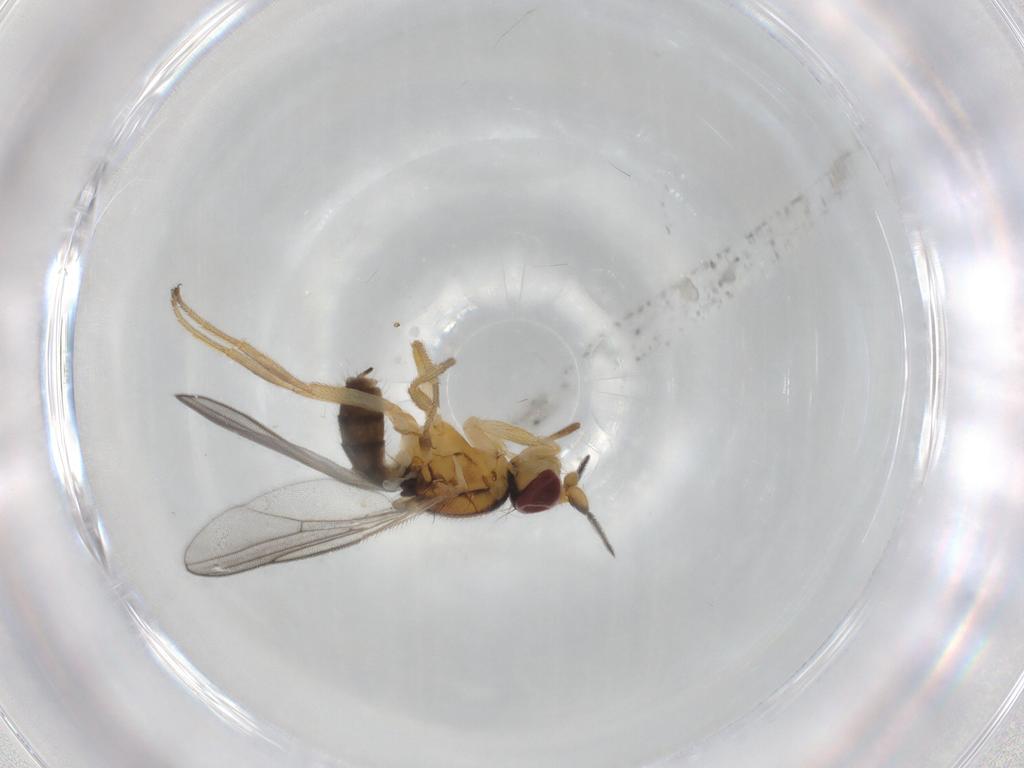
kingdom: Animalia
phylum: Arthropoda
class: Insecta
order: Diptera
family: Chloropidae
